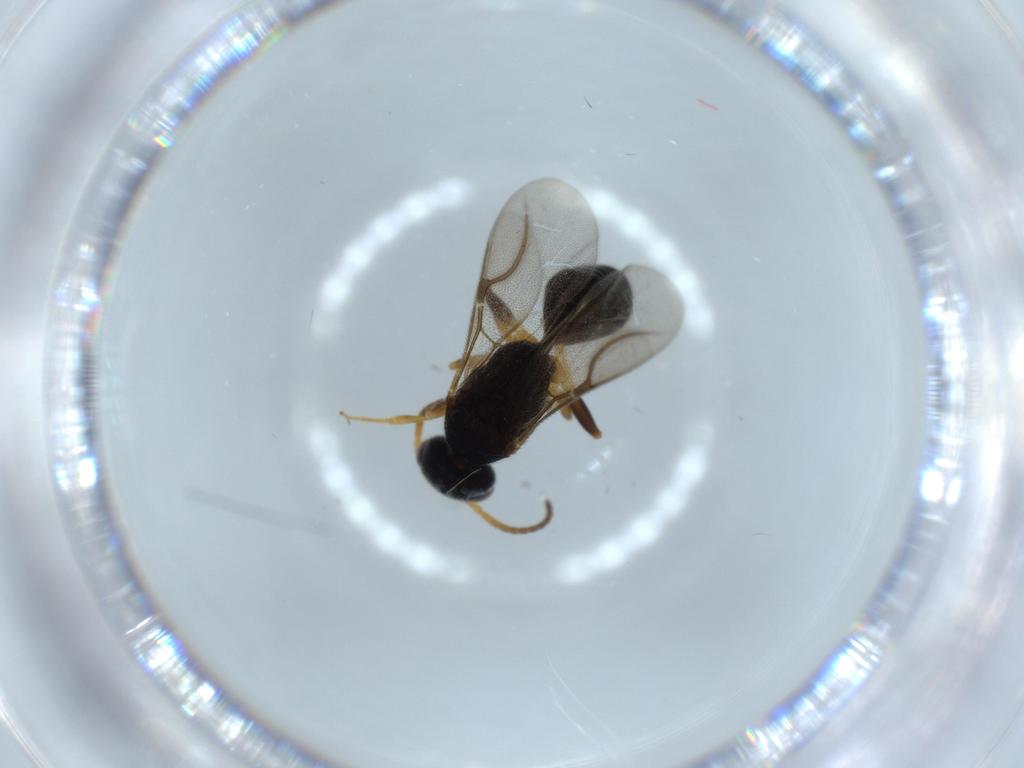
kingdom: Animalia
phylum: Arthropoda
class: Insecta
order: Hymenoptera
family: Bethylidae
